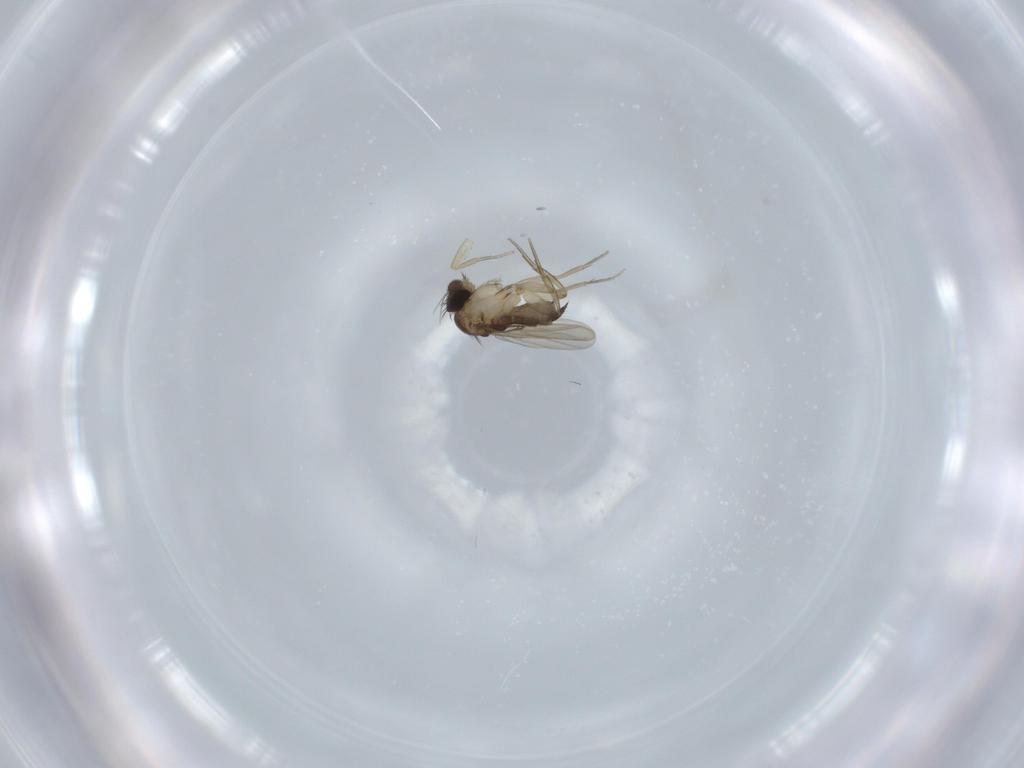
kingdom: Animalia
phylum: Arthropoda
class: Insecta
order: Diptera
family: Phoridae
